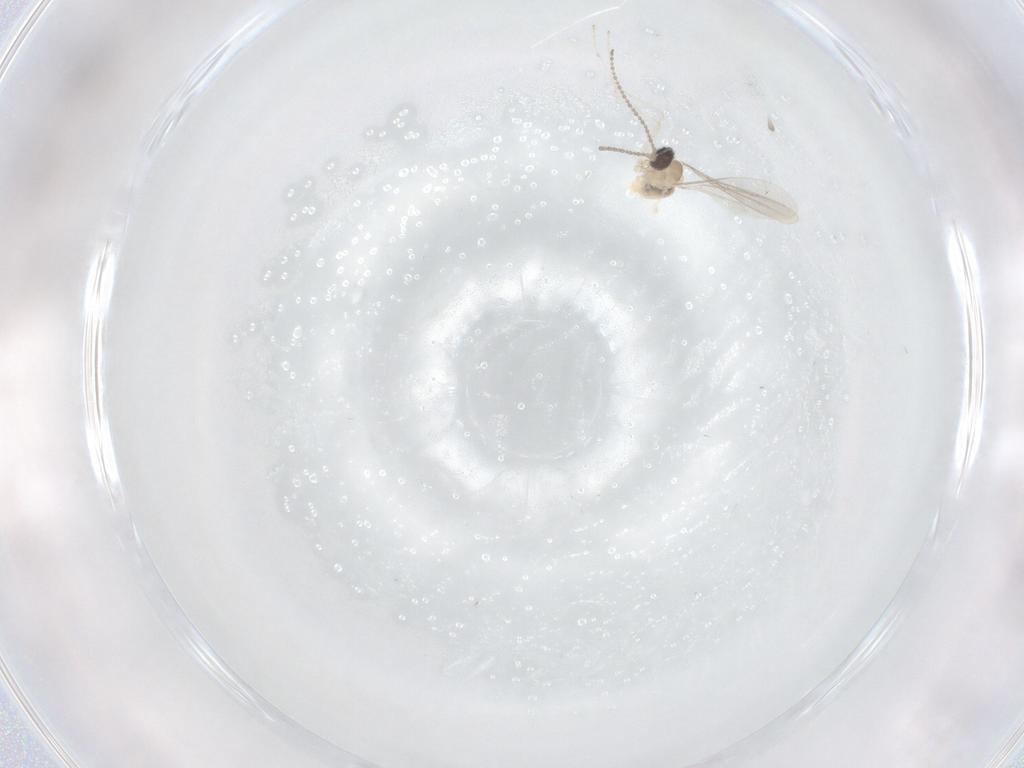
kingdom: Animalia
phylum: Arthropoda
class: Insecta
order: Diptera
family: Cecidomyiidae
